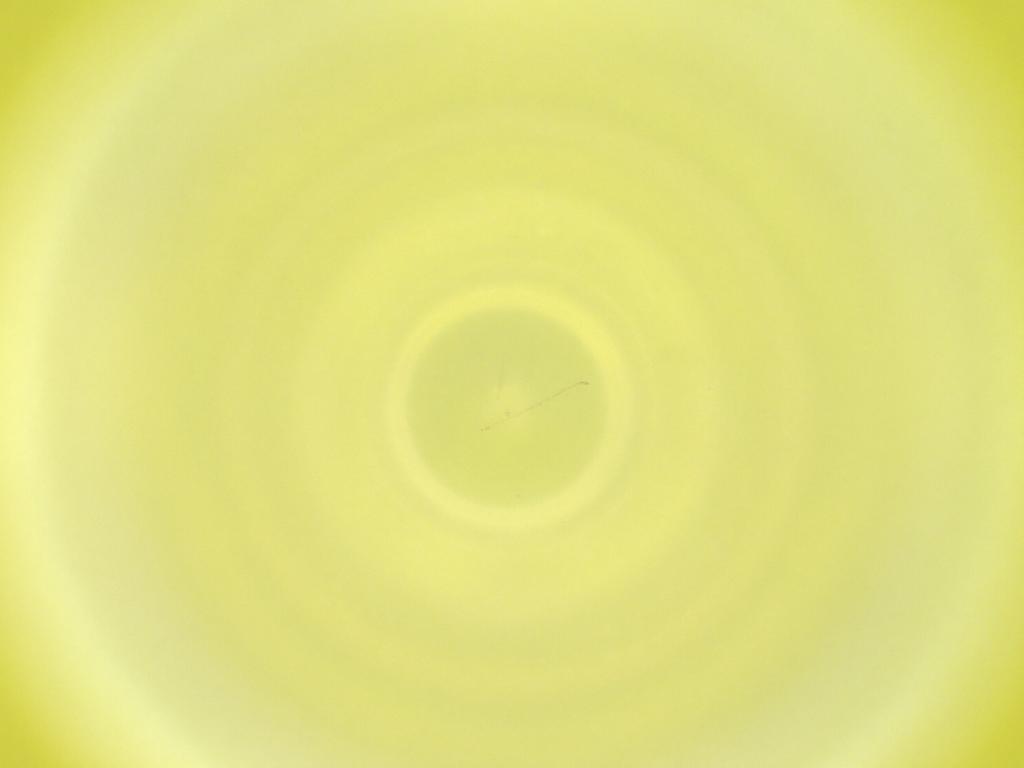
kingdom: Animalia
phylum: Arthropoda
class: Insecta
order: Diptera
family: Cecidomyiidae
